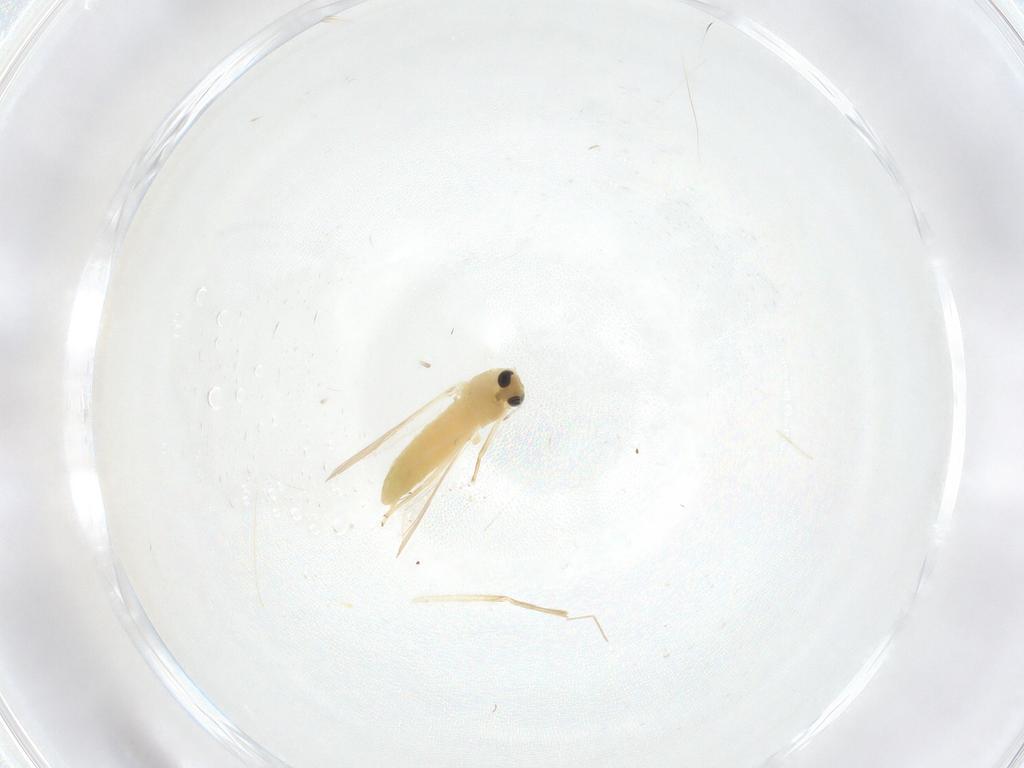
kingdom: Animalia
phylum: Arthropoda
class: Insecta
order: Diptera
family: Chironomidae
